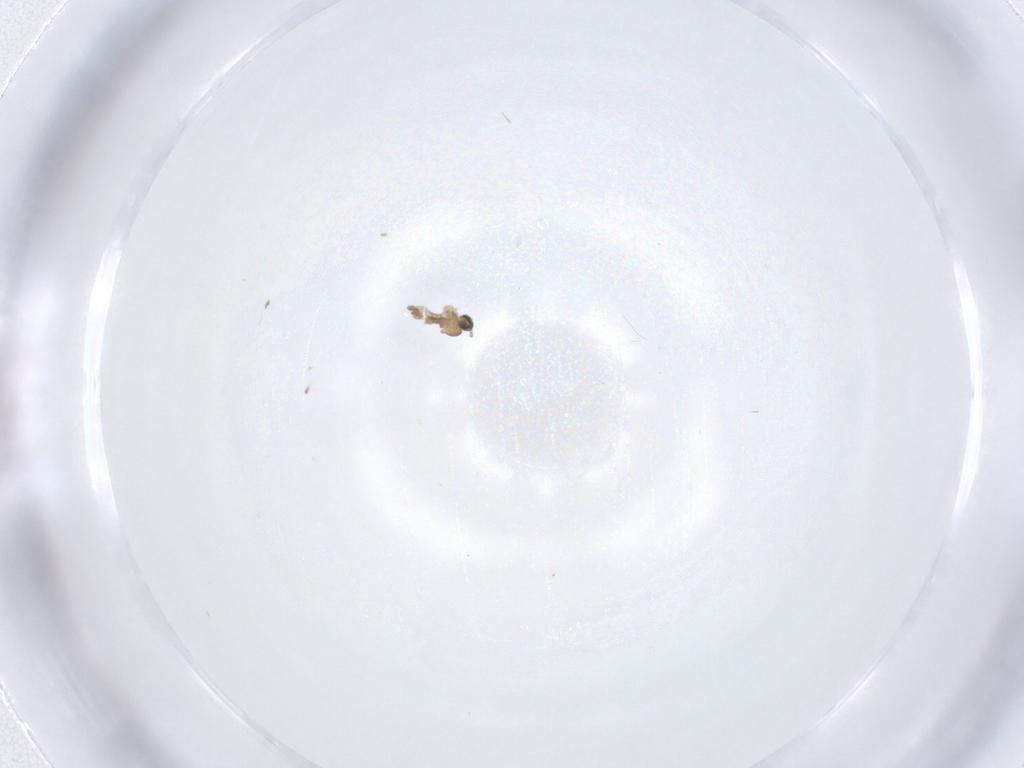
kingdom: Animalia
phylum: Arthropoda
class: Insecta
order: Diptera
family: Cecidomyiidae
